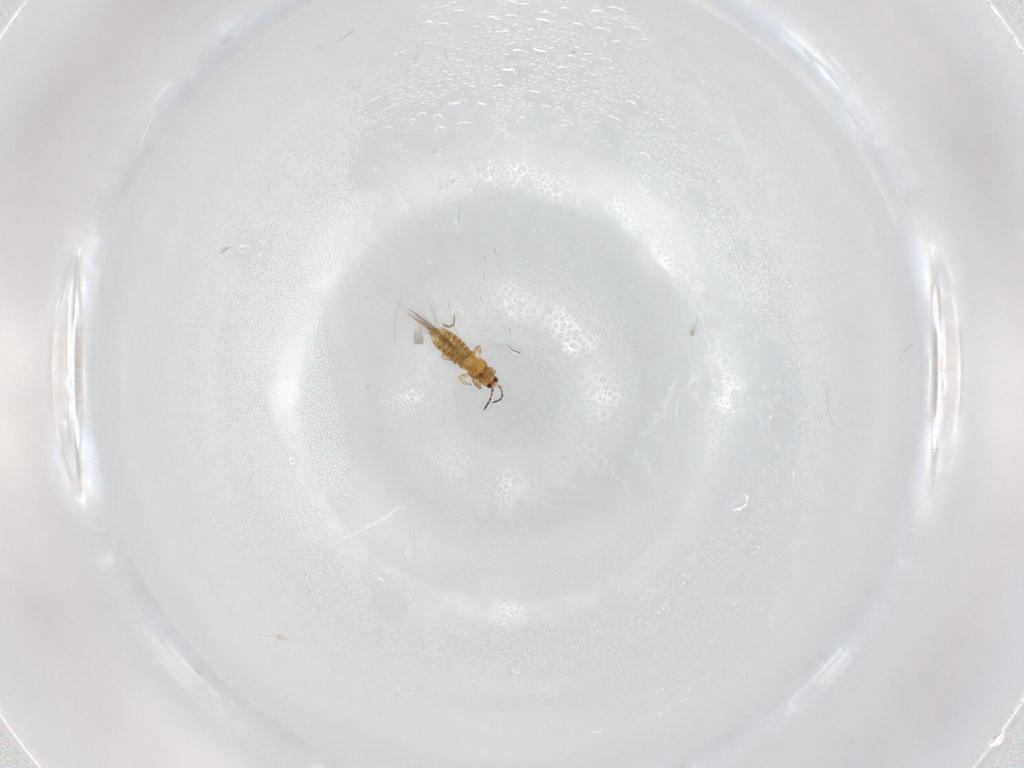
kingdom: Animalia
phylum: Arthropoda
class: Insecta
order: Thysanoptera
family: Thripidae
